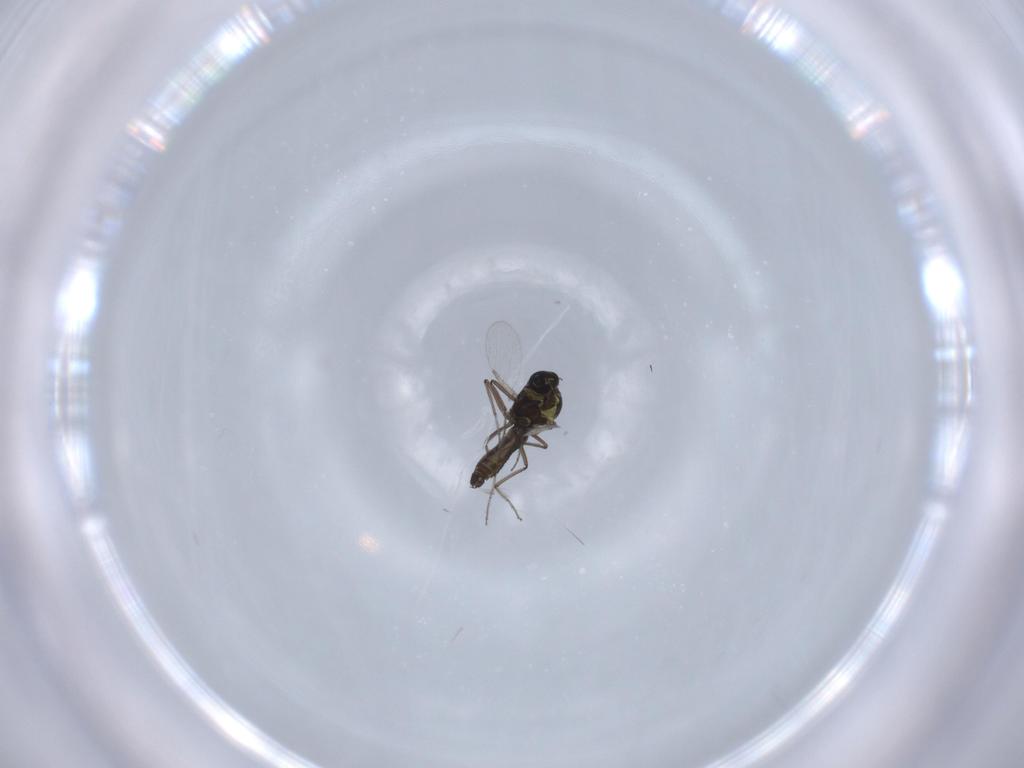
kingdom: Animalia
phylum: Arthropoda
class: Insecta
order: Diptera
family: Ceratopogonidae
